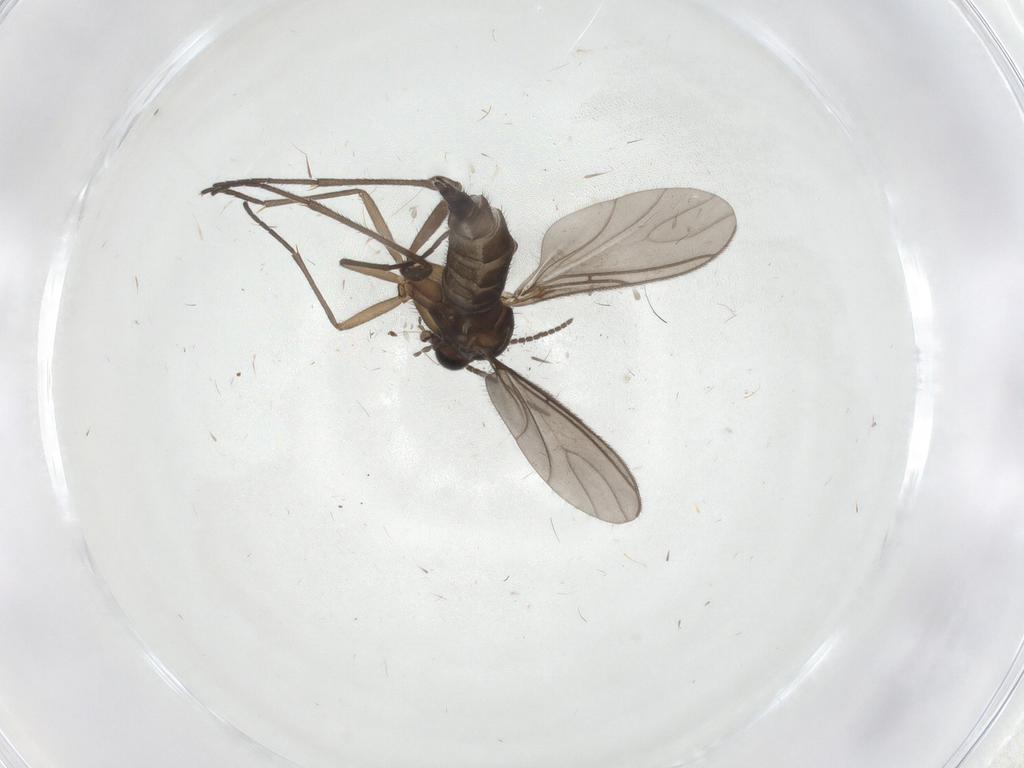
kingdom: Animalia
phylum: Arthropoda
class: Insecta
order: Diptera
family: Sciaridae
